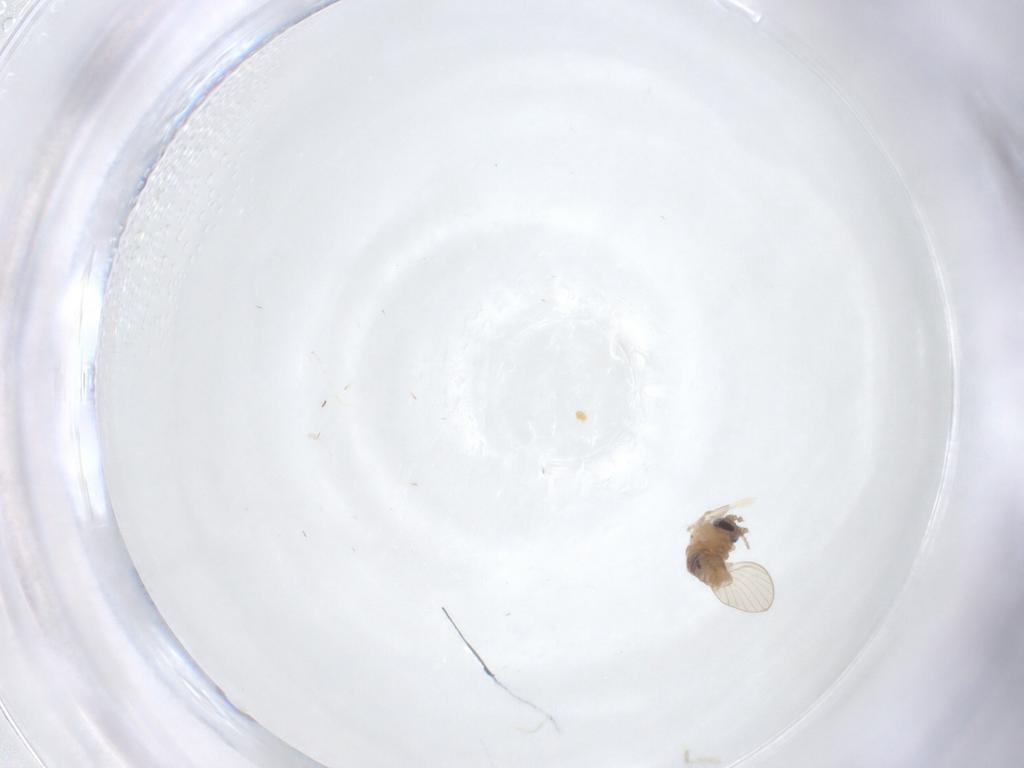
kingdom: Animalia
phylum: Arthropoda
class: Insecta
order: Diptera
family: Chironomidae
